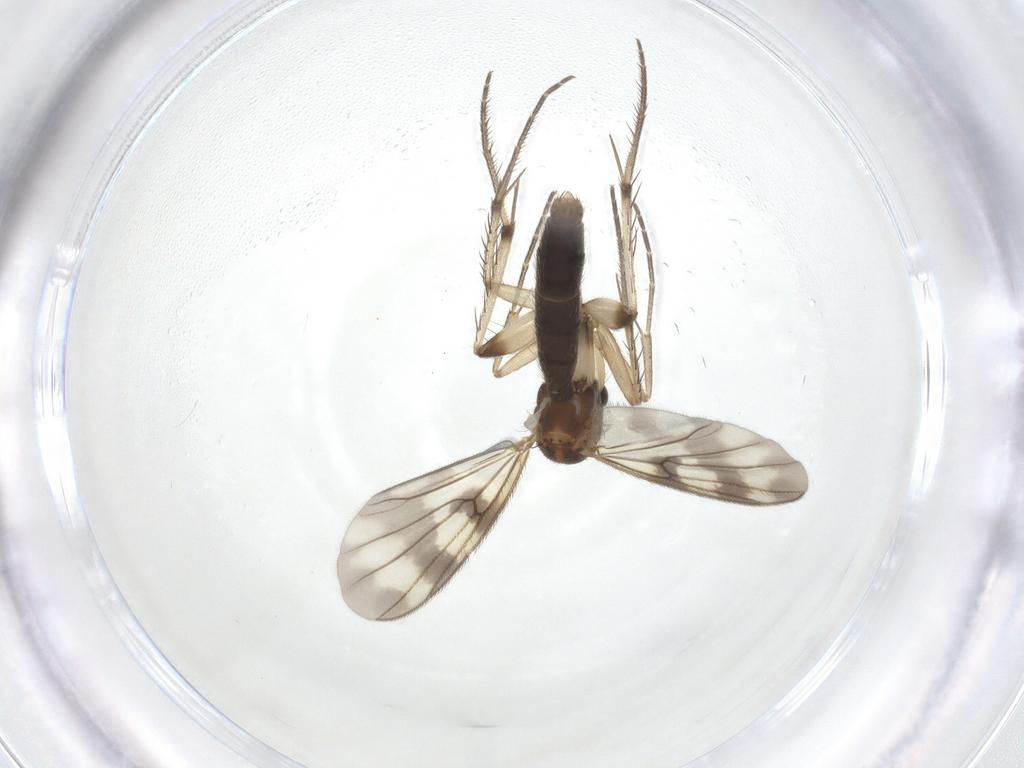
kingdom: Animalia
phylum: Arthropoda
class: Insecta
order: Diptera
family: Mycetophilidae
